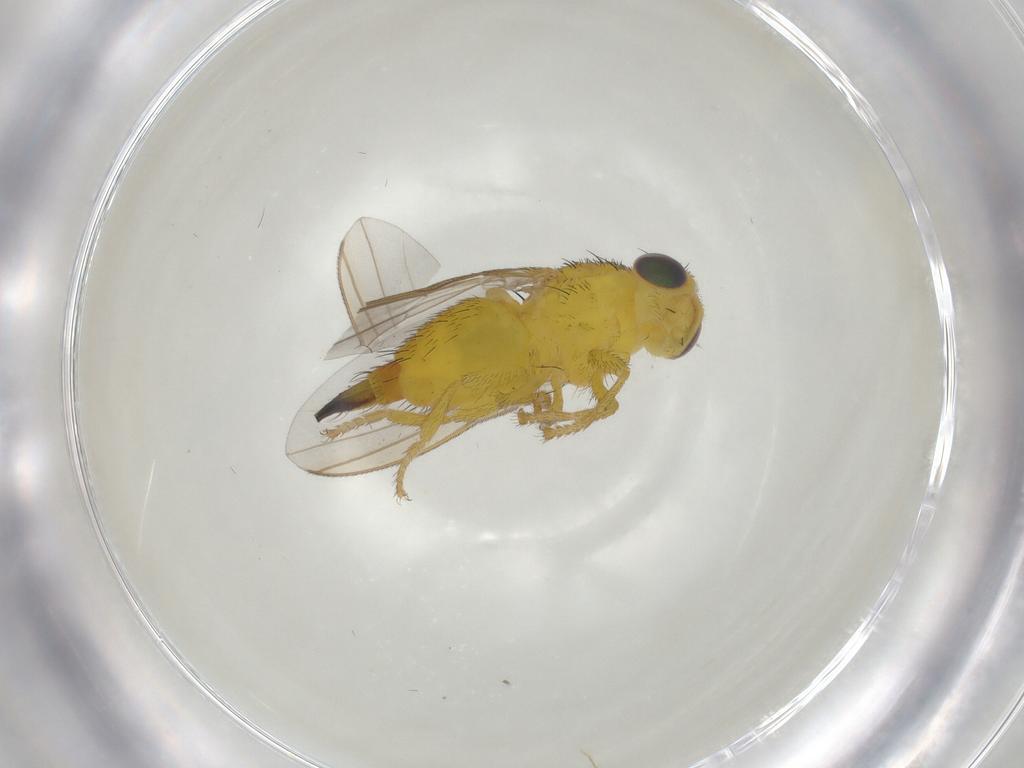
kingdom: Animalia
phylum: Arthropoda
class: Insecta
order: Diptera
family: Fergusoninidae
